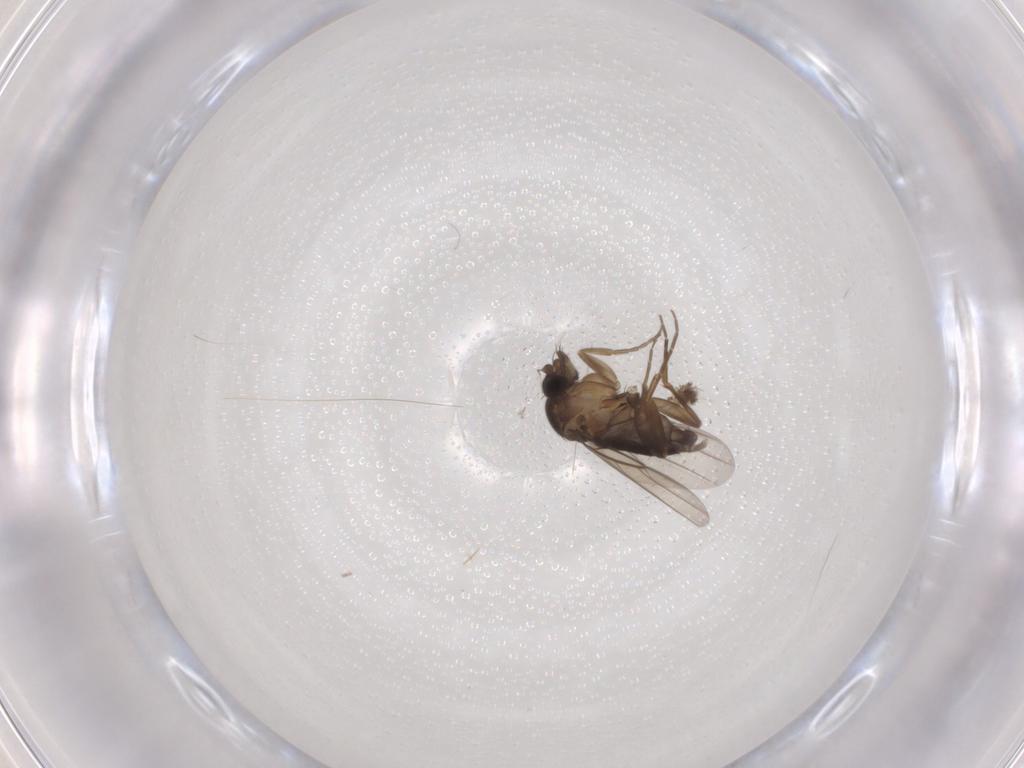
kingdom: Animalia
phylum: Arthropoda
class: Insecta
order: Diptera
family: Phoridae
